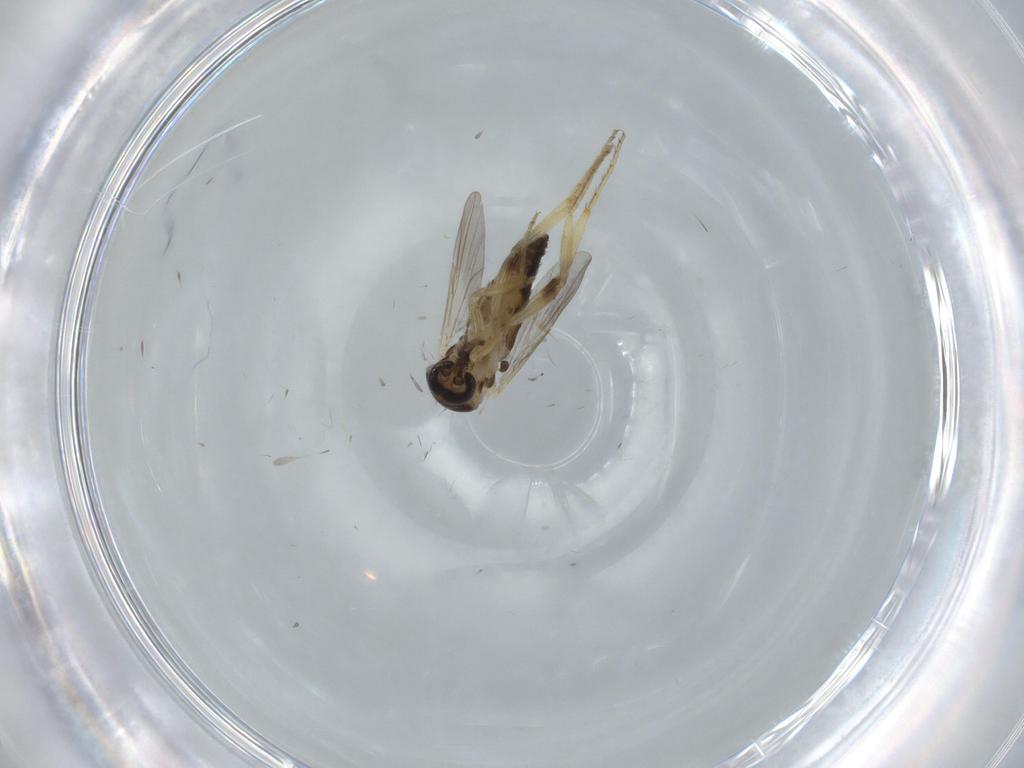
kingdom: Animalia
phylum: Arthropoda
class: Insecta
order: Diptera
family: Ceratopogonidae
